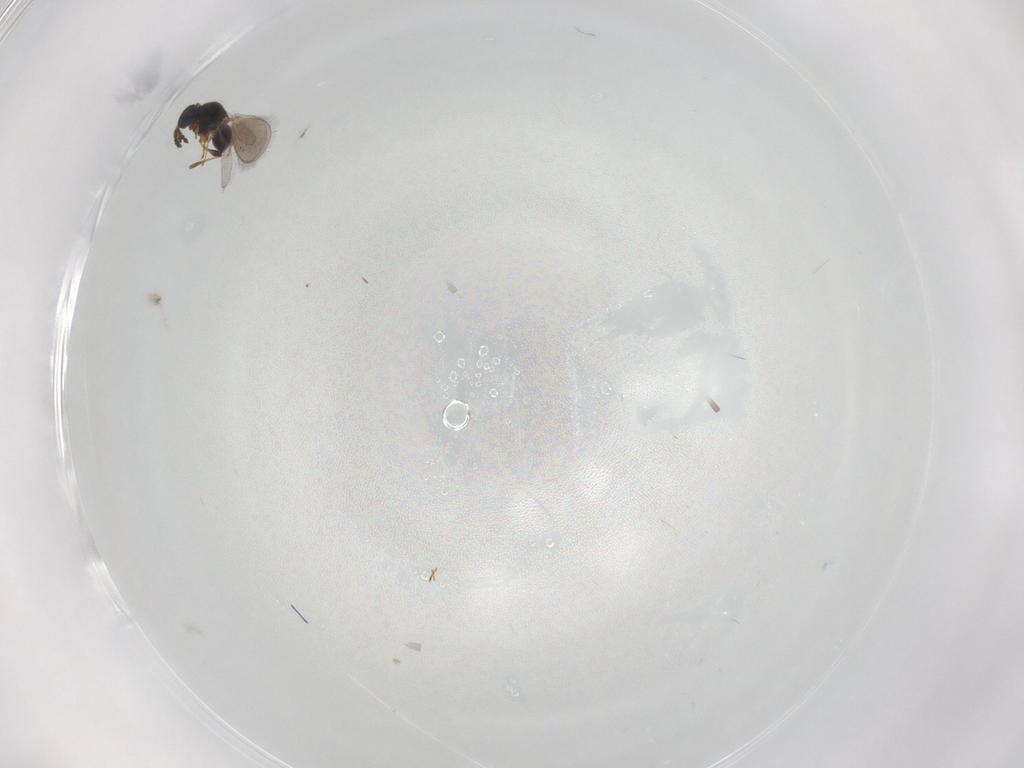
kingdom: Animalia
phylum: Arthropoda
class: Insecta
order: Hymenoptera
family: Platygastridae
